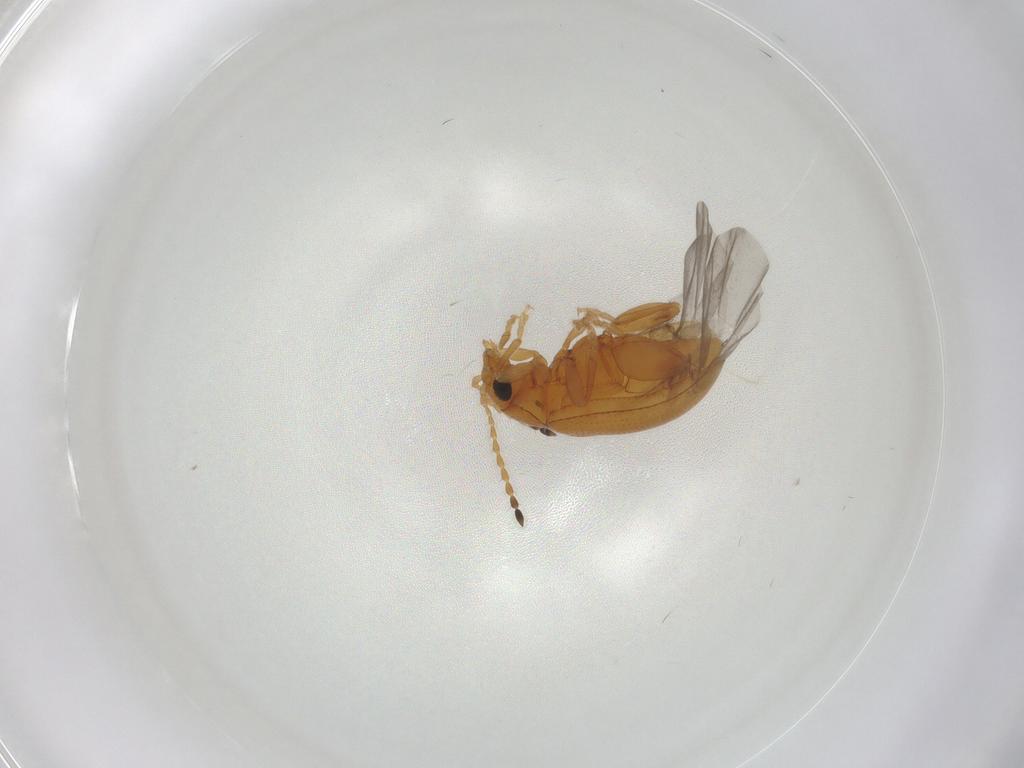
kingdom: Animalia
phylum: Arthropoda
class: Insecta
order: Coleoptera
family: Chrysomelidae
